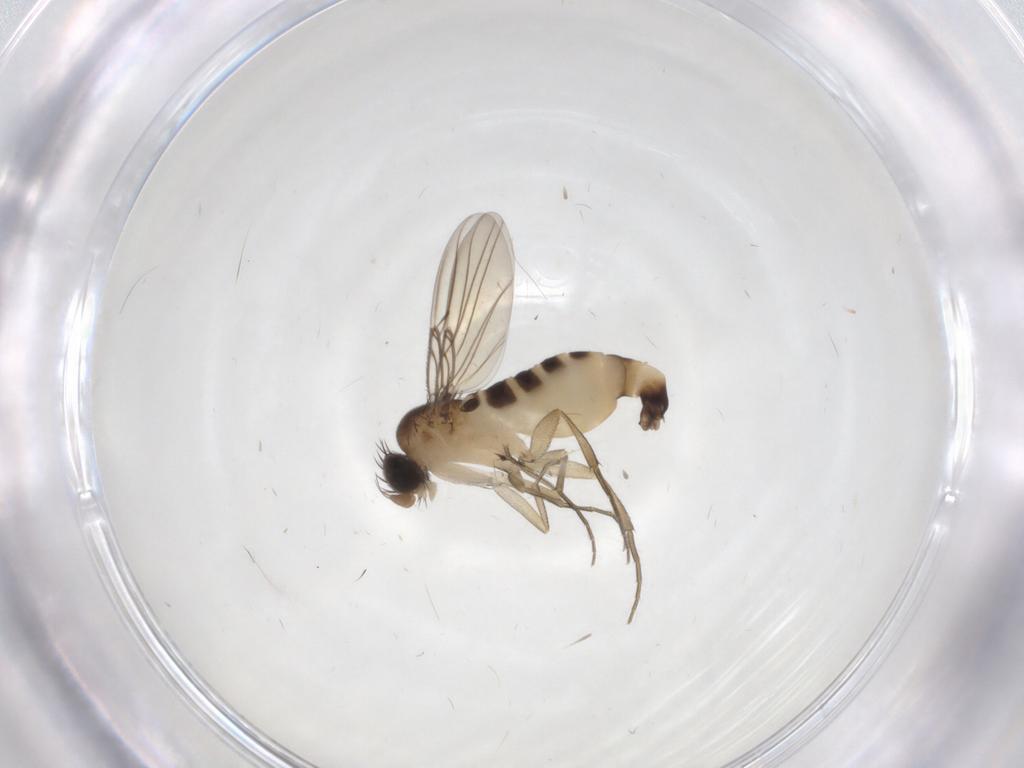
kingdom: Animalia
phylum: Arthropoda
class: Insecta
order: Diptera
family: Phoridae
